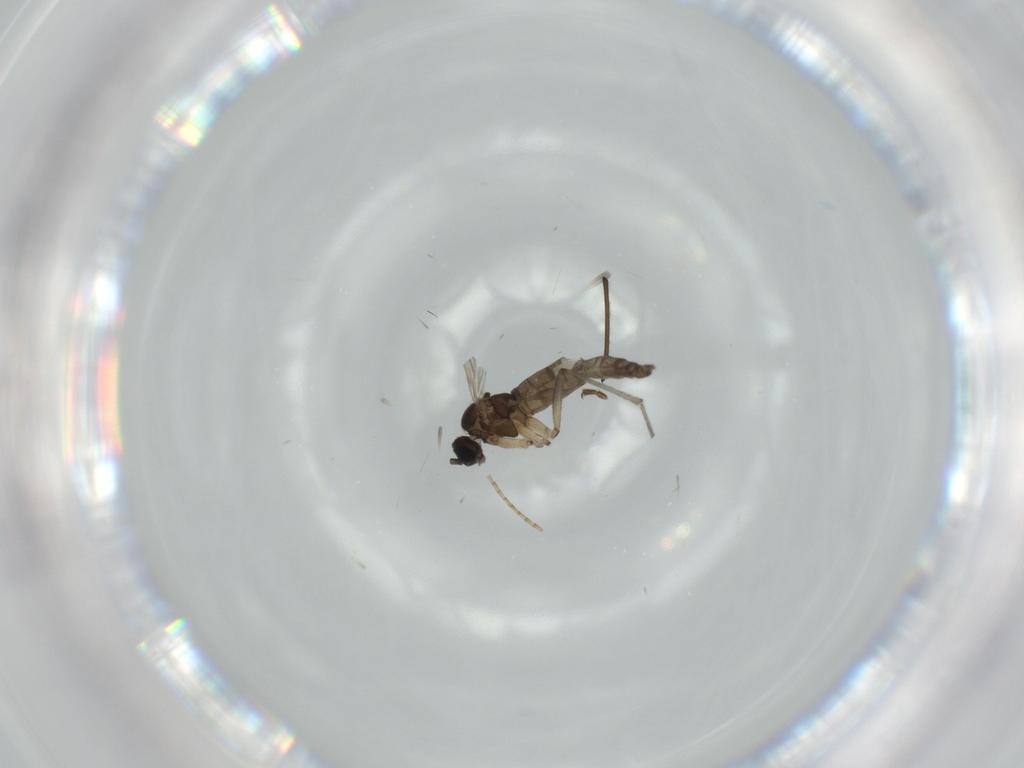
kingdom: Animalia
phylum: Arthropoda
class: Insecta
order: Diptera
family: Sciaridae
